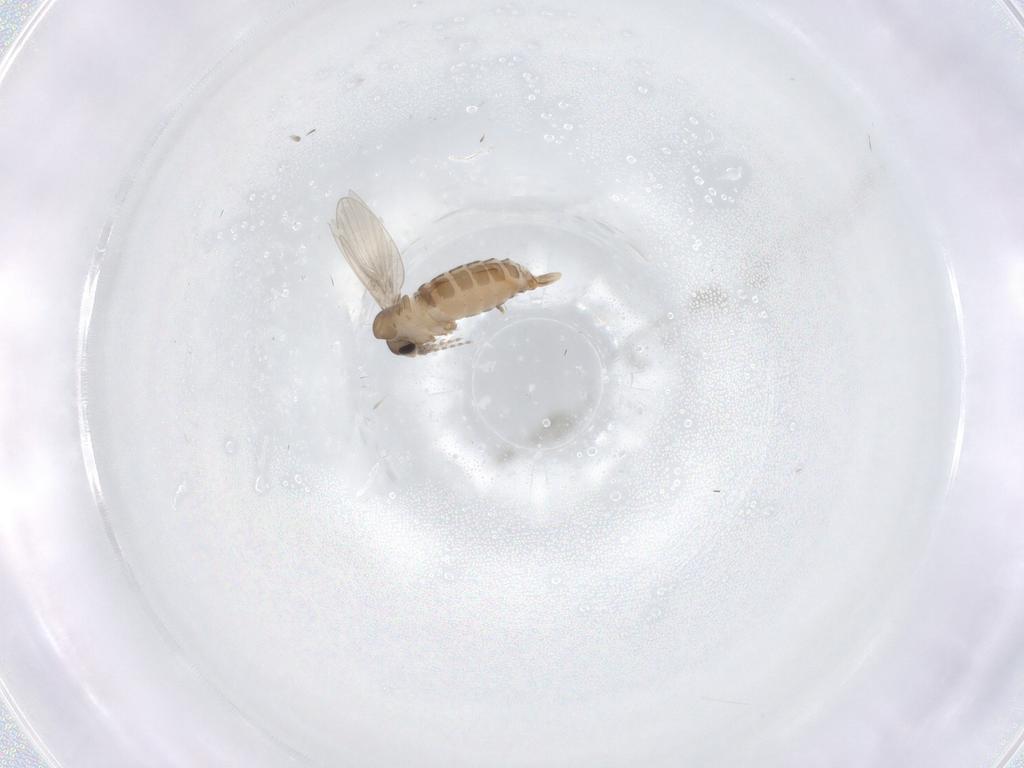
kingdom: Animalia
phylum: Arthropoda
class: Insecta
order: Diptera
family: Psychodidae
